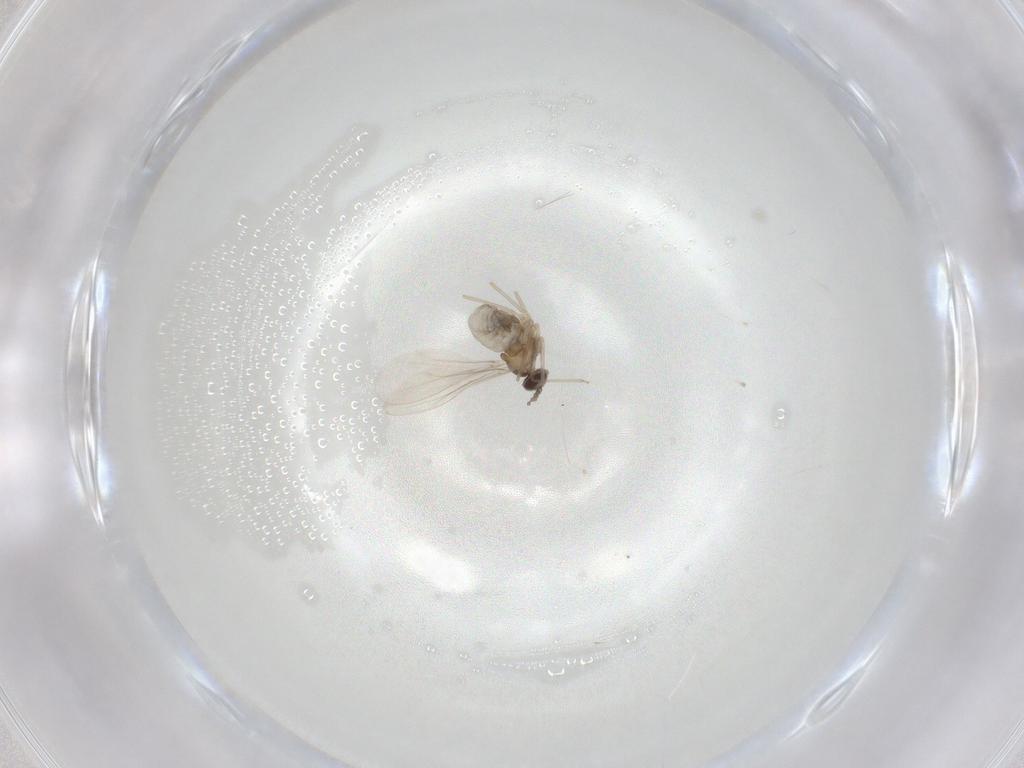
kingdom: Animalia
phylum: Arthropoda
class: Insecta
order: Diptera
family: Cecidomyiidae
